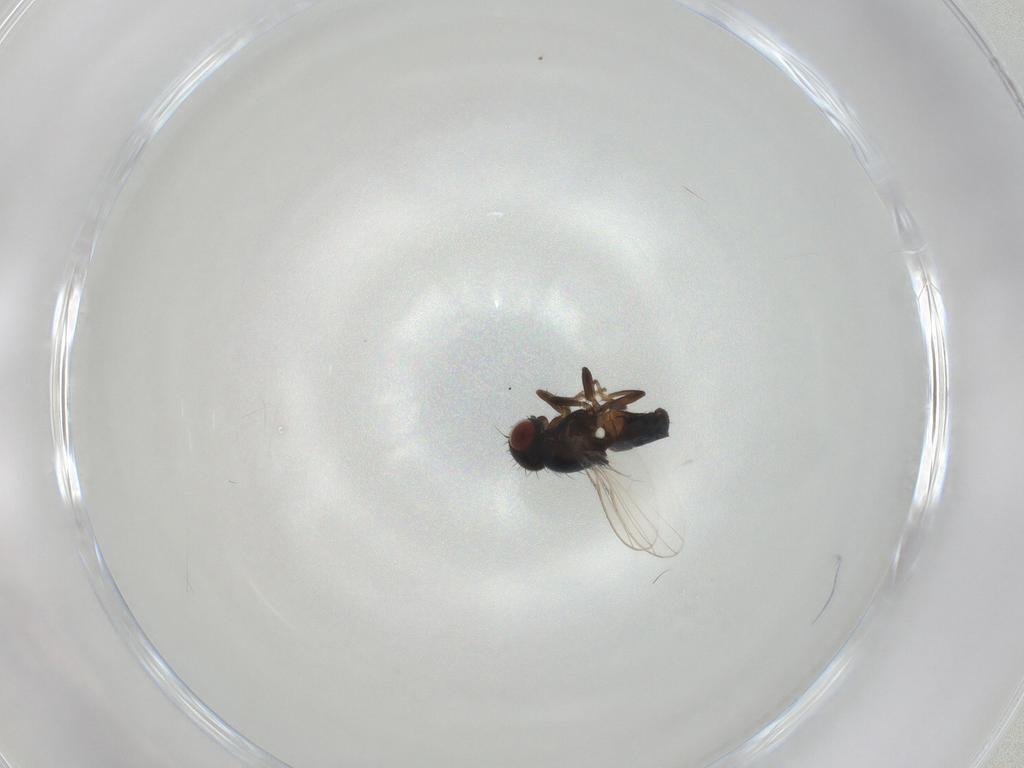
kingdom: Animalia
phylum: Arthropoda
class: Insecta
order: Diptera
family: Carnidae
